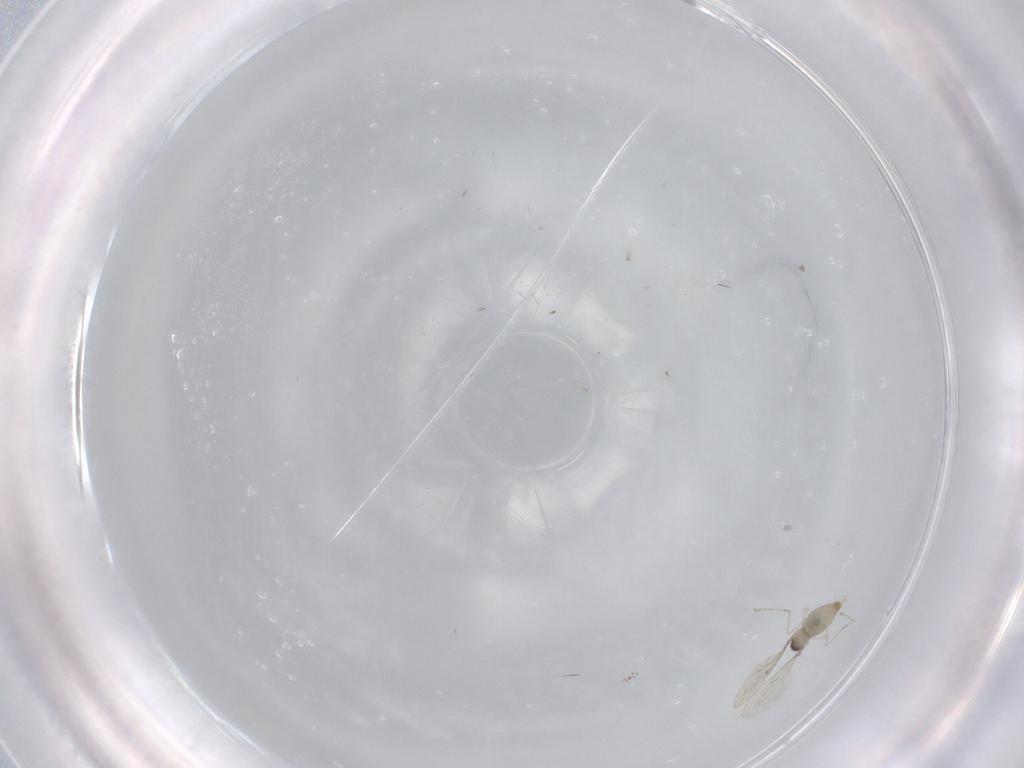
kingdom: Animalia
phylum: Arthropoda
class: Insecta
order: Diptera
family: Cecidomyiidae
